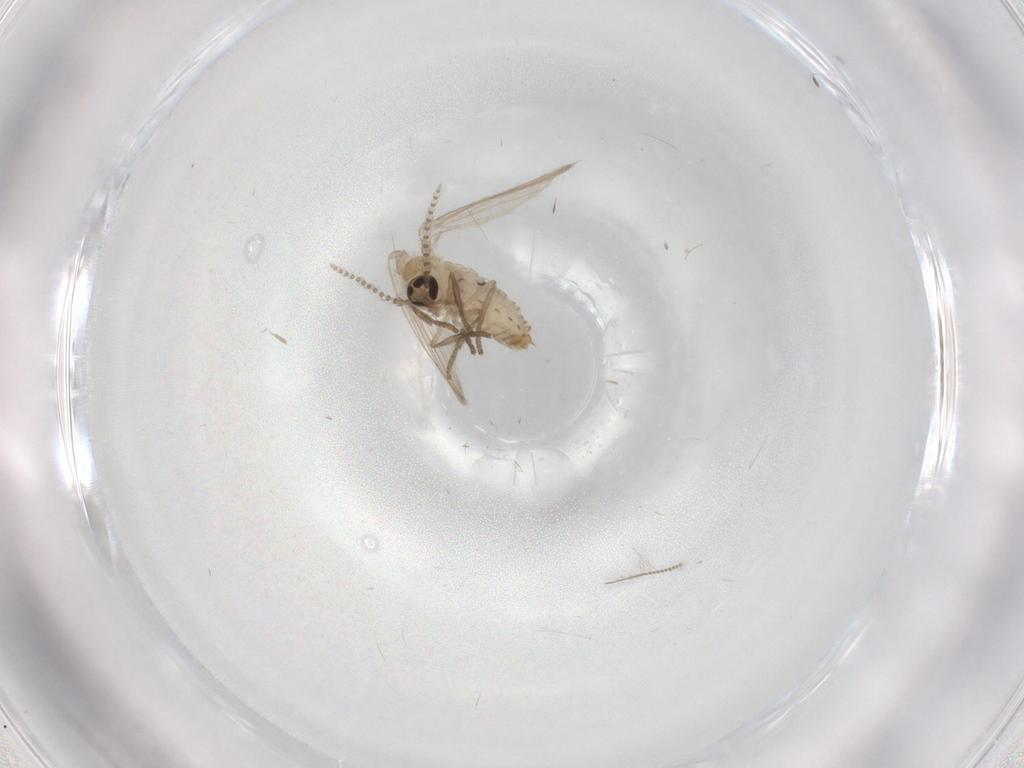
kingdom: Animalia
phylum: Arthropoda
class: Insecta
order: Diptera
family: Psychodidae
